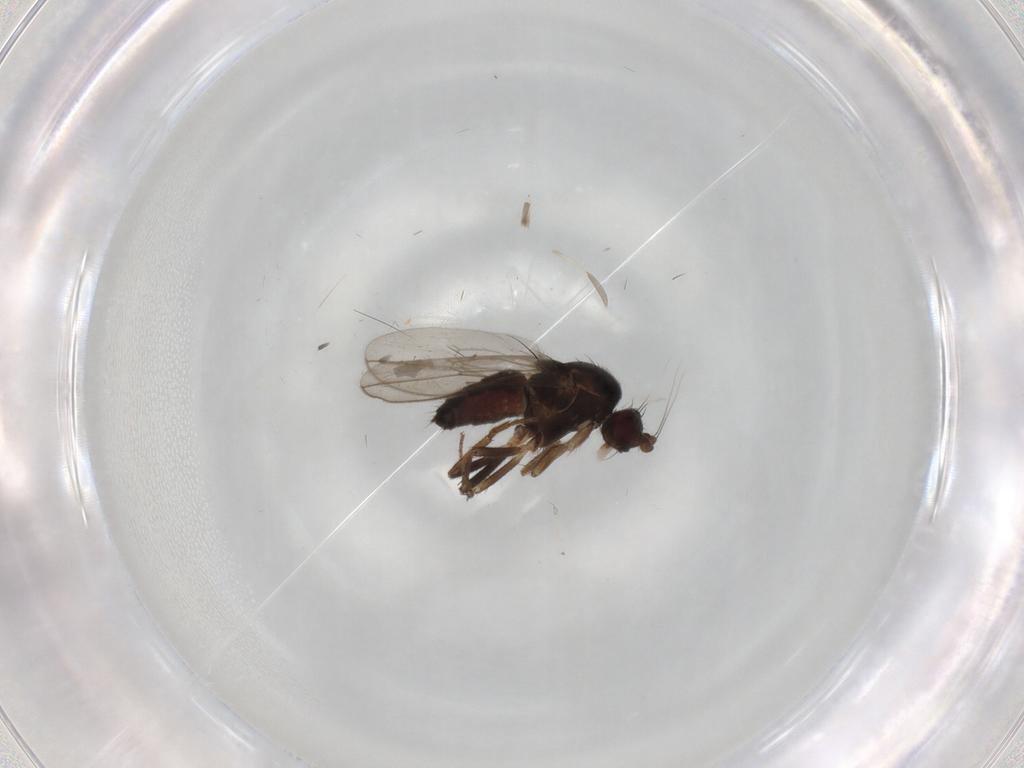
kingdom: Animalia
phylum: Arthropoda
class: Insecta
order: Diptera
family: Sphaeroceridae
